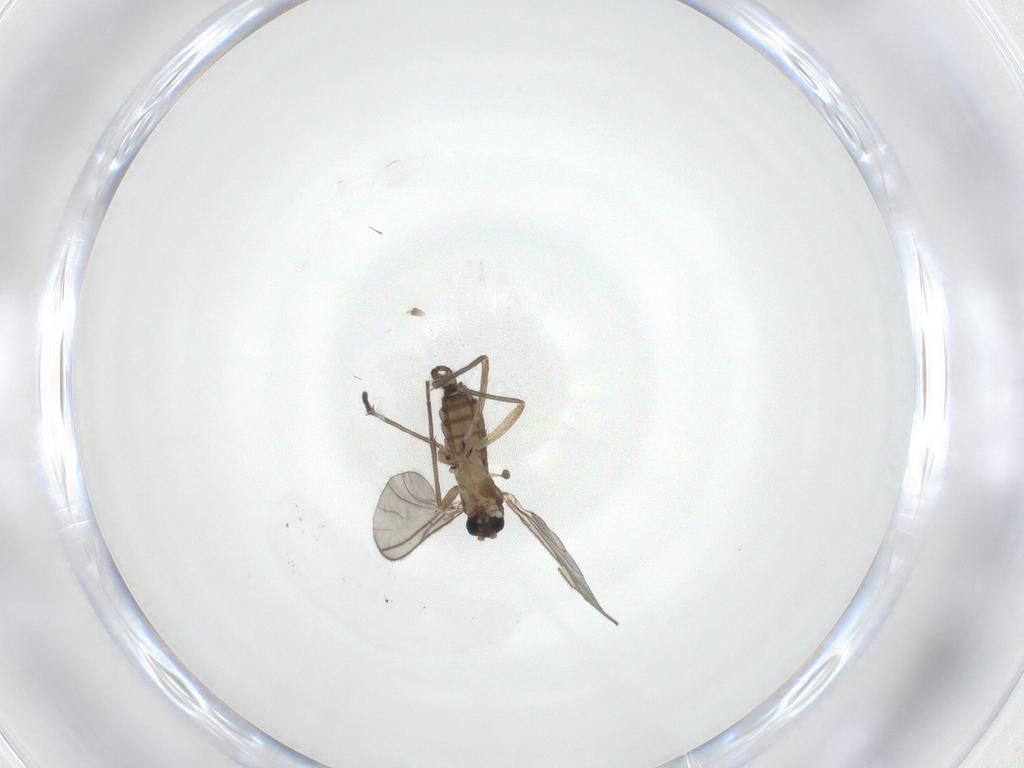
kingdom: Animalia
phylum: Arthropoda
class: Insecta
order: Diptera
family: Sciaridae
